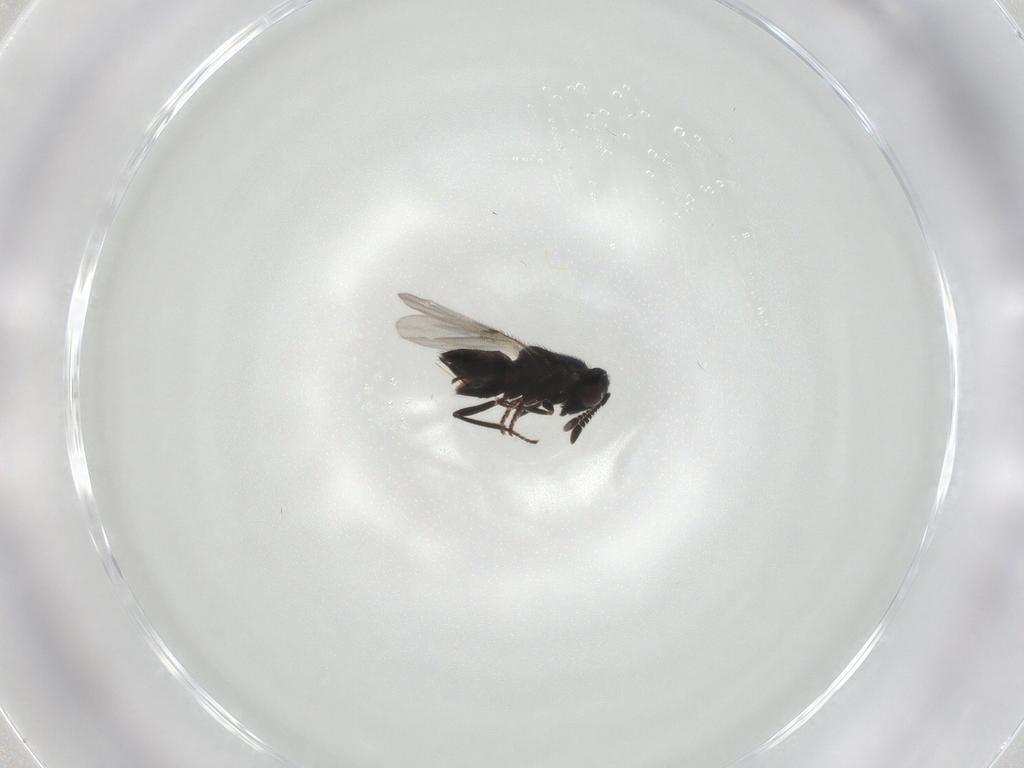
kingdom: Animalia
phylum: Arthropoda
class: Insecta
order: Hymenoptera
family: Encyrtidae
